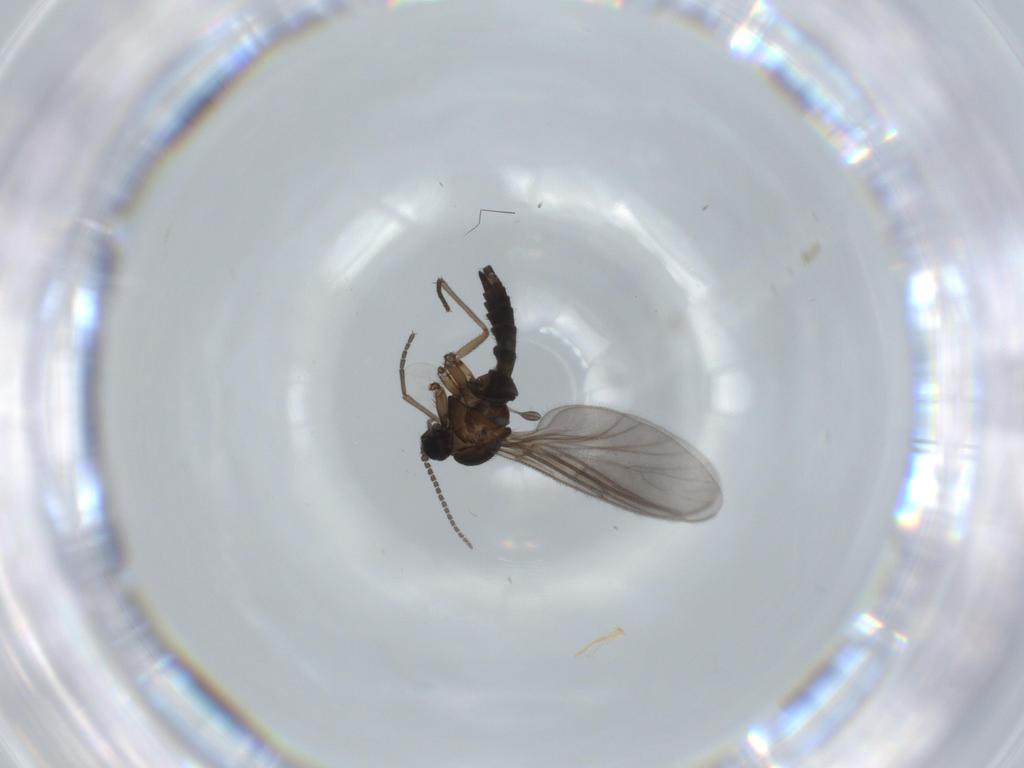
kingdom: Animalia
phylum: Arthropoda
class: Insecta
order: Diptera
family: Sciaridae
